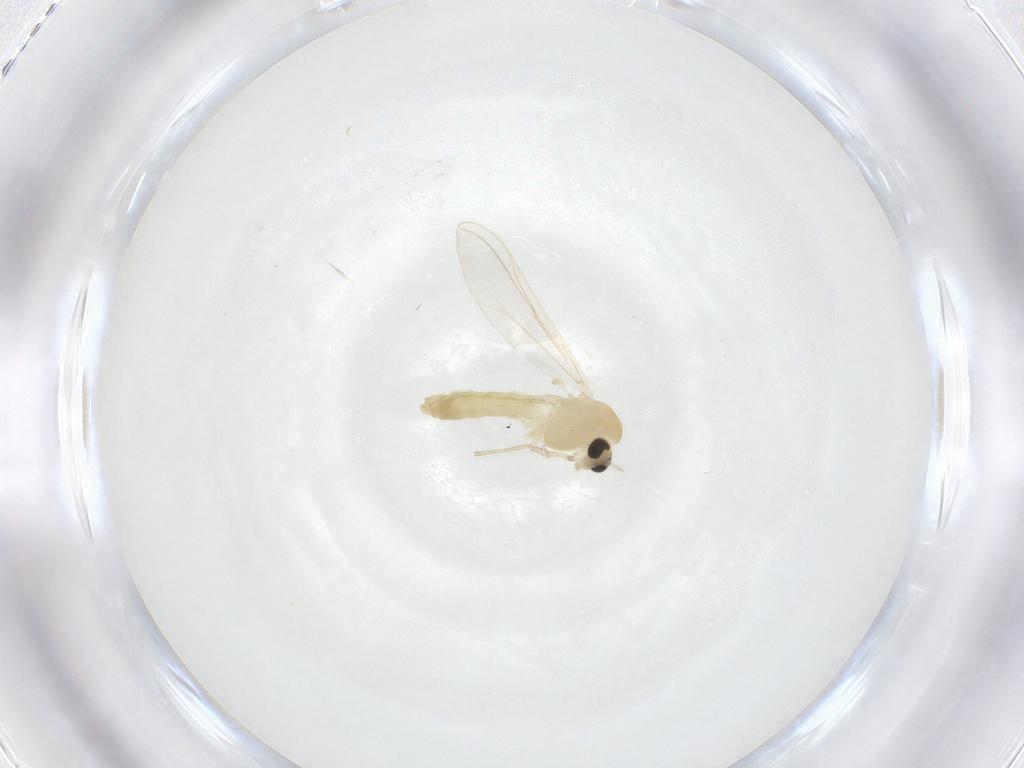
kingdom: Animalia
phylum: Arthropoda
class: Insecta
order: Diptera
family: Chironomidae
